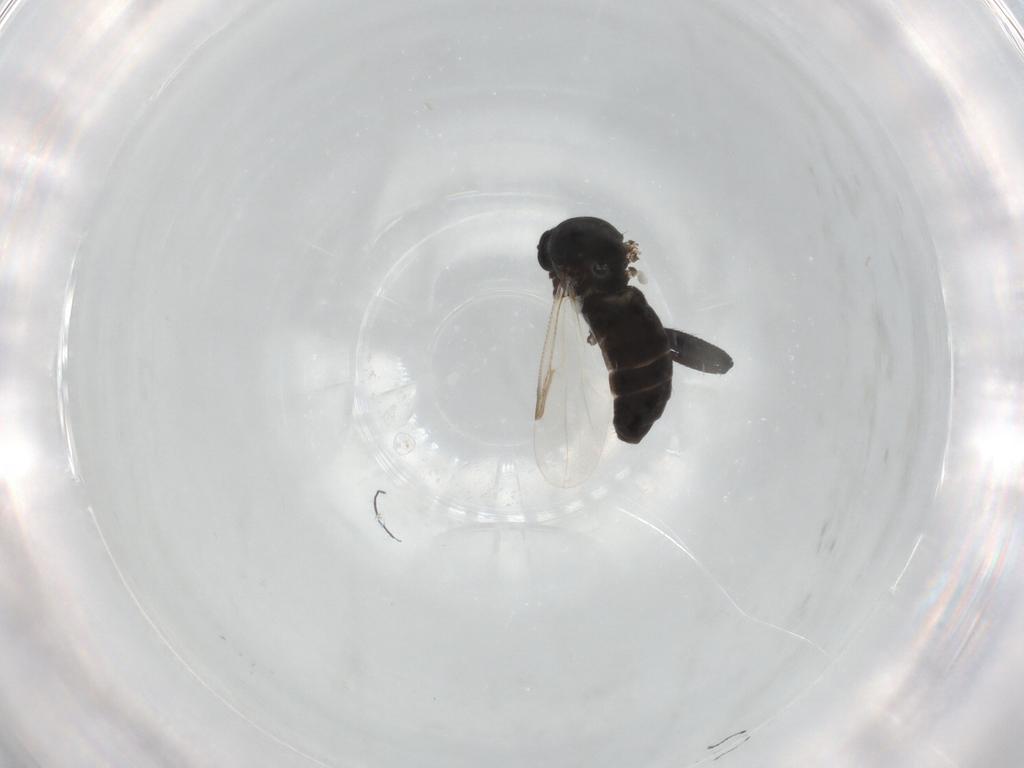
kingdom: Animalia
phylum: Arthropoda
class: Insecta
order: Diptera
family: Ceratopogonidae
